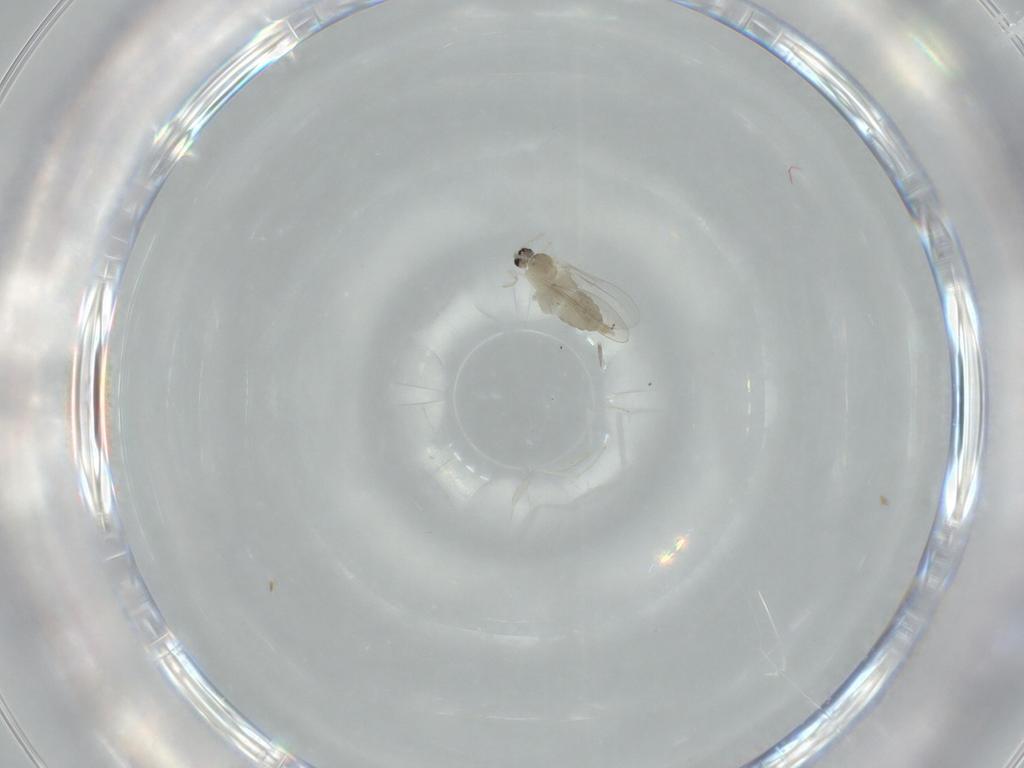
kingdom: Animalia
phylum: Arthropoda
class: Insecta
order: Diptera
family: Cecidomyiidae
